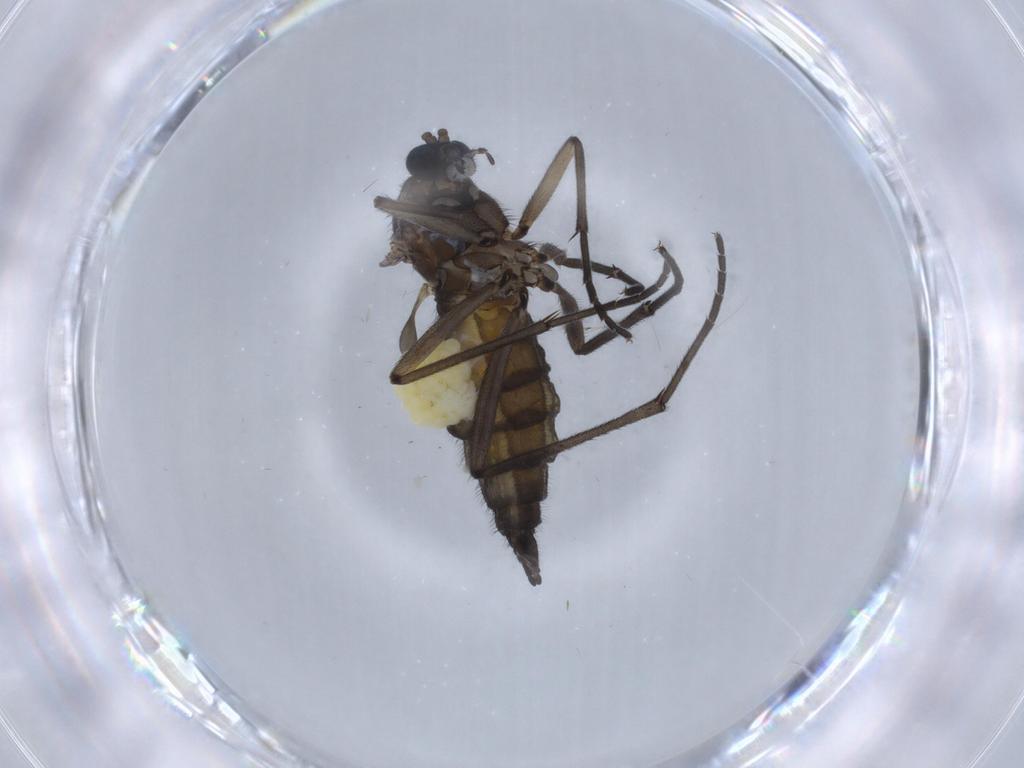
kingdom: Animalia
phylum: Arthropoda
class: Insecta
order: Diptera
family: Sciaridae
